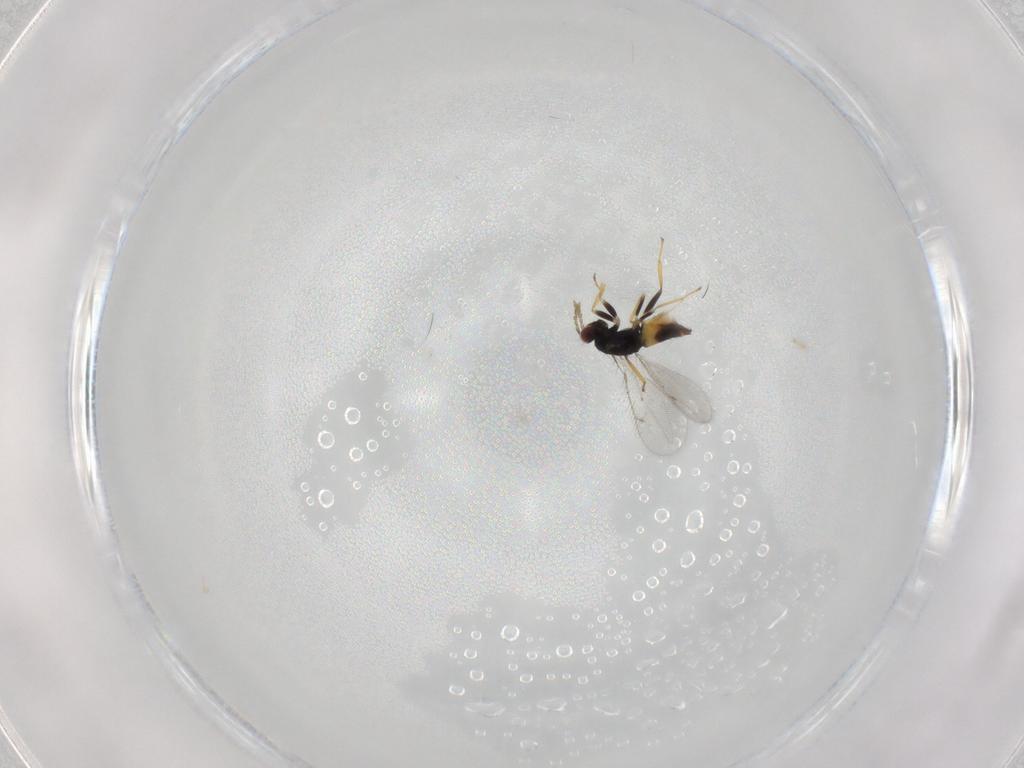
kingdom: Animalia
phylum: Arthropoda
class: Insecta
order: Hymenoptera
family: Eulophidae
